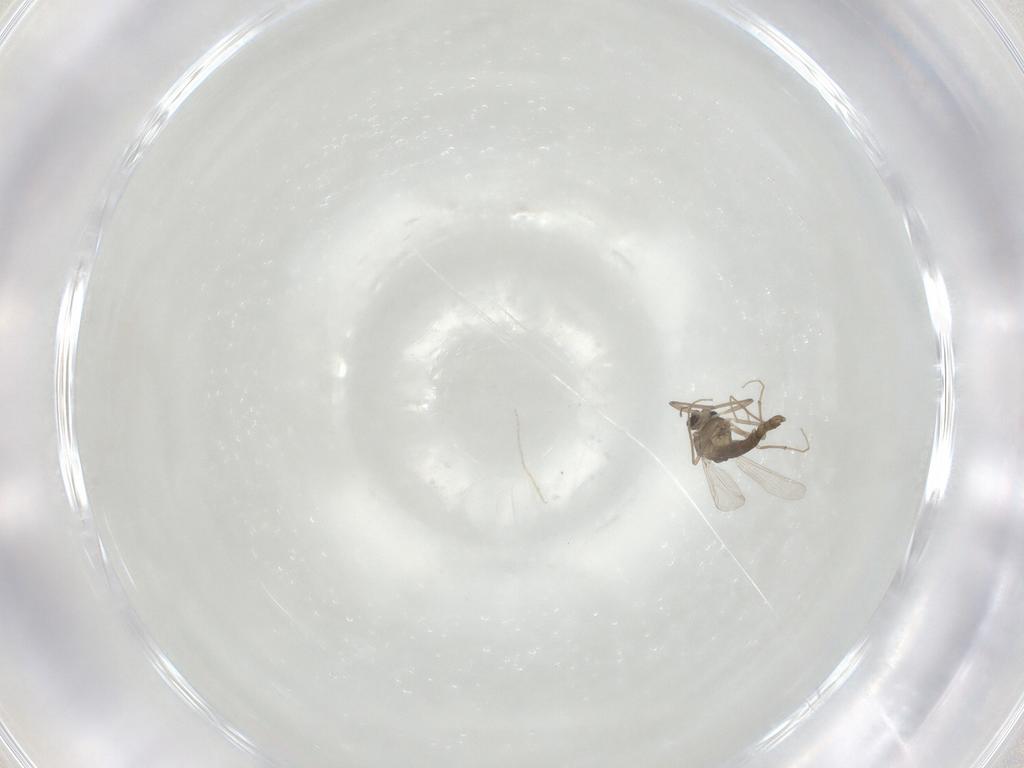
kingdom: Animalia
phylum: Arthropoda
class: Insecta
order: Diptera
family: Chironomidae
